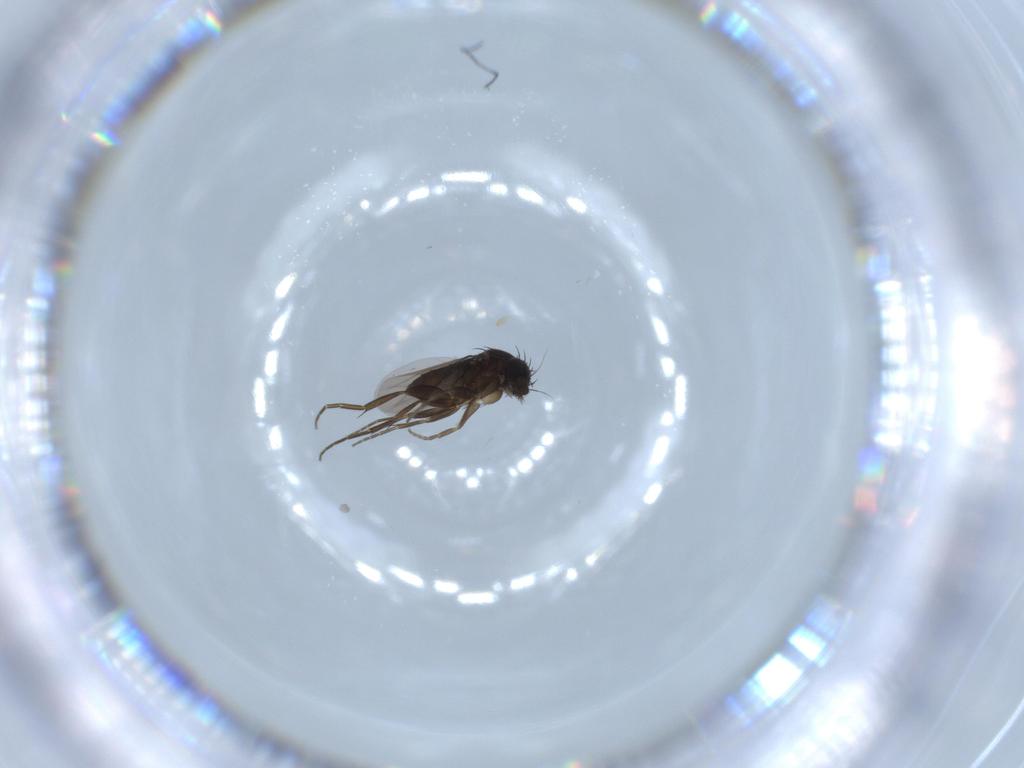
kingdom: Animalia
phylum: Arthropoda
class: Insecta
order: Diptera
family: Phoridae
